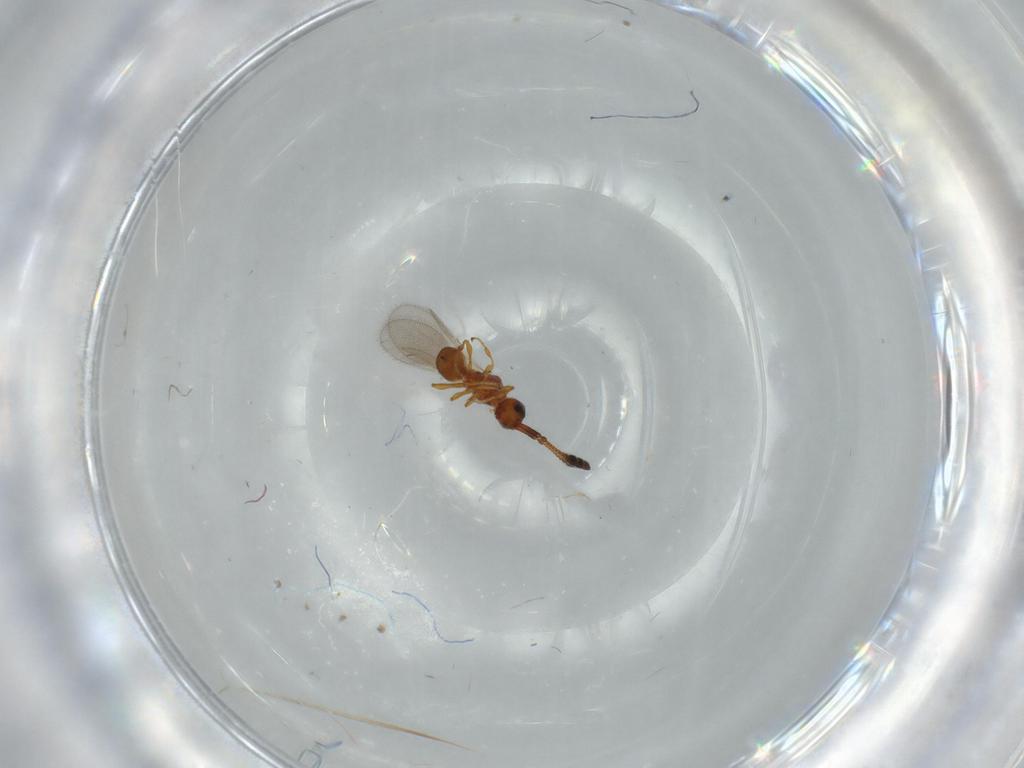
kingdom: Animalia
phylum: Arthropoda
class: Insecta
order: Hymenoptera
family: Diapriidae
